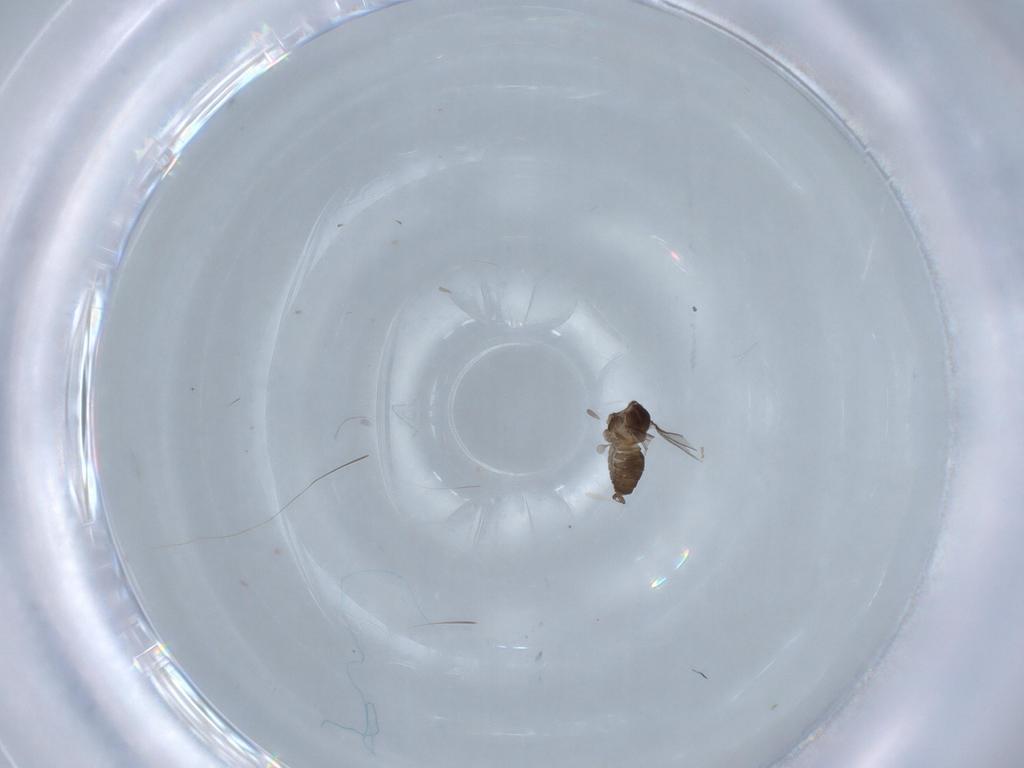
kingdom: Animalia
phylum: Arthropoda
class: Insecta
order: Diptera
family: Cecidomyiidae
